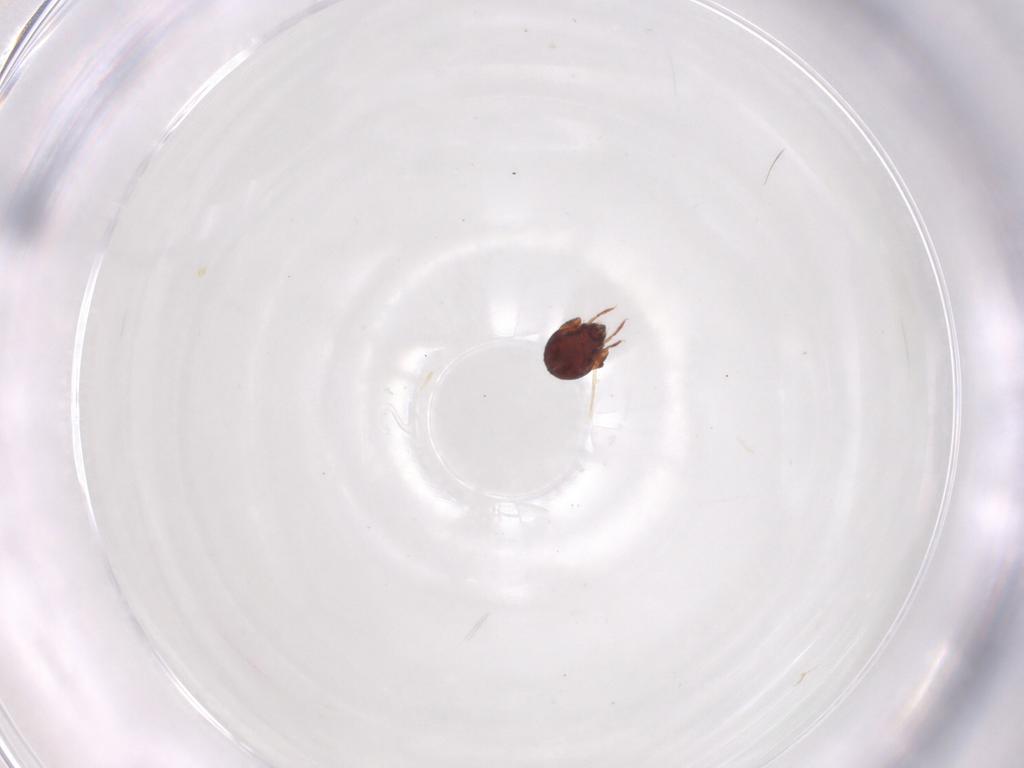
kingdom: Animalia
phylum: Arthropoda
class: Arachnida
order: Sarcoptiformes
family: Humerobatidae
